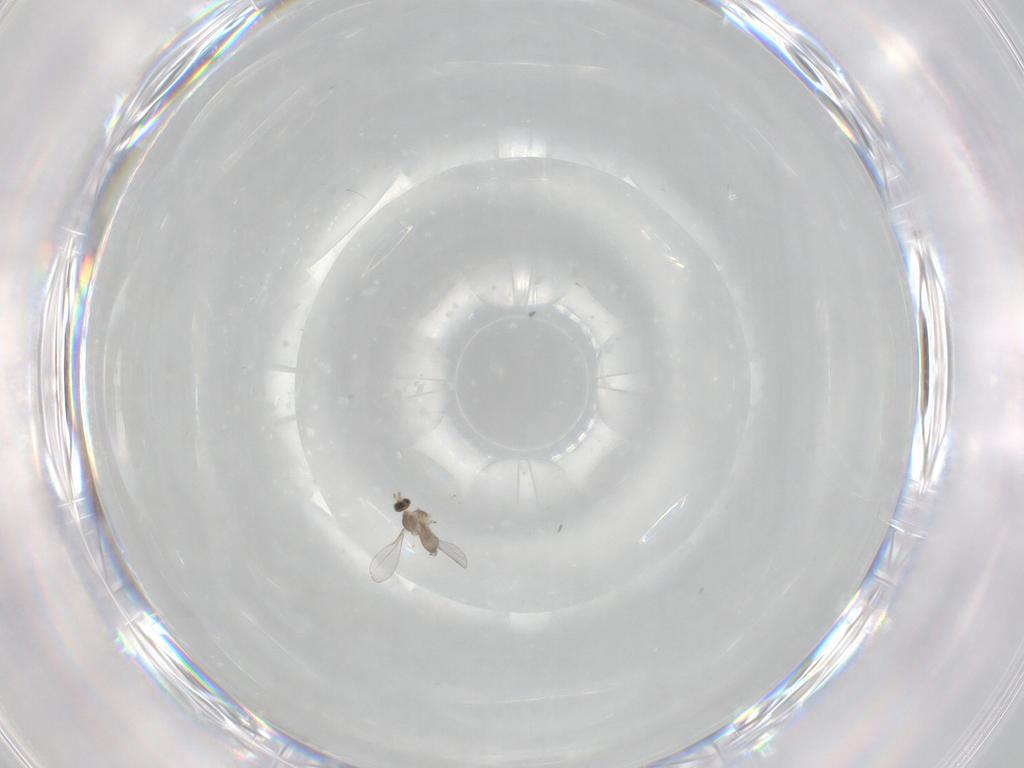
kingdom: Animalia
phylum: Arthropoda
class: Insecta
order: Diptera
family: Cecidomyiidae
